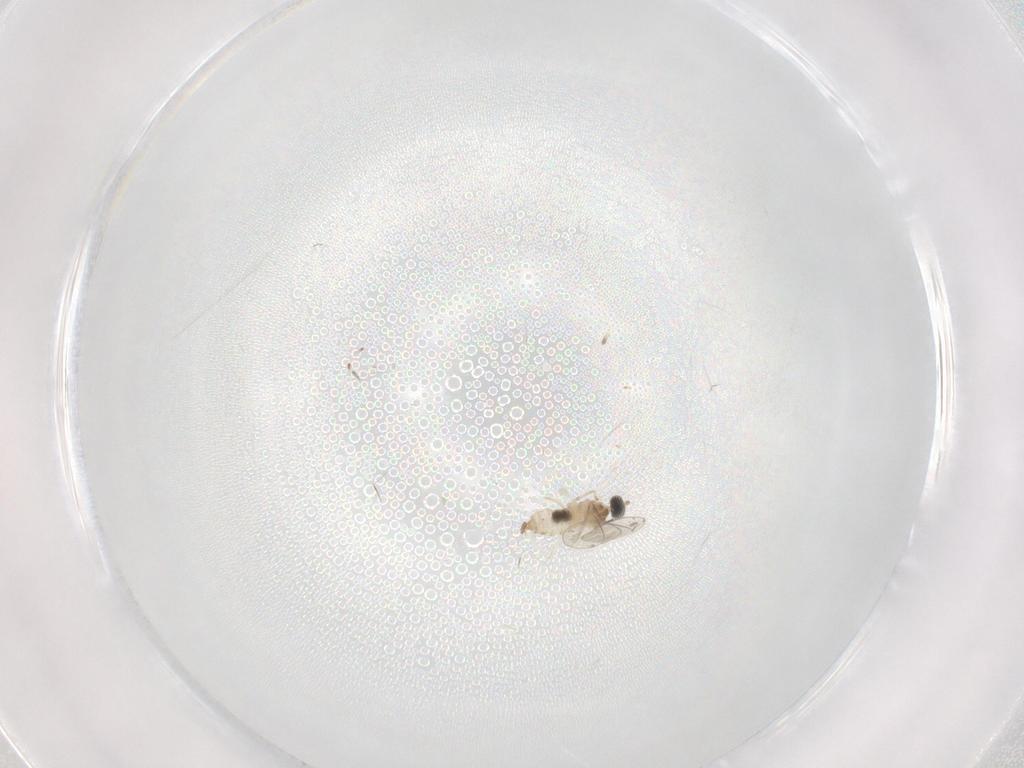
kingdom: Animalia
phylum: Arthropoda
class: Insecta
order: Diptera
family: Cecidomyiidae
